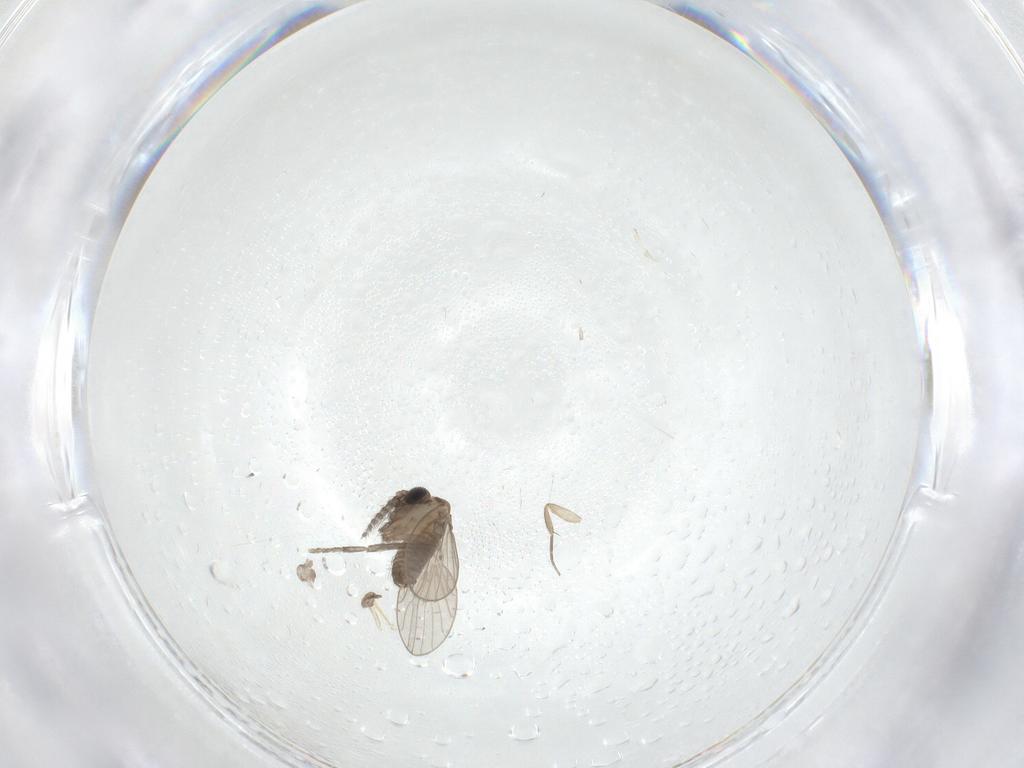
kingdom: Animalia
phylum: Arthropoda
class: Insecta
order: Diptera
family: Phoridae
